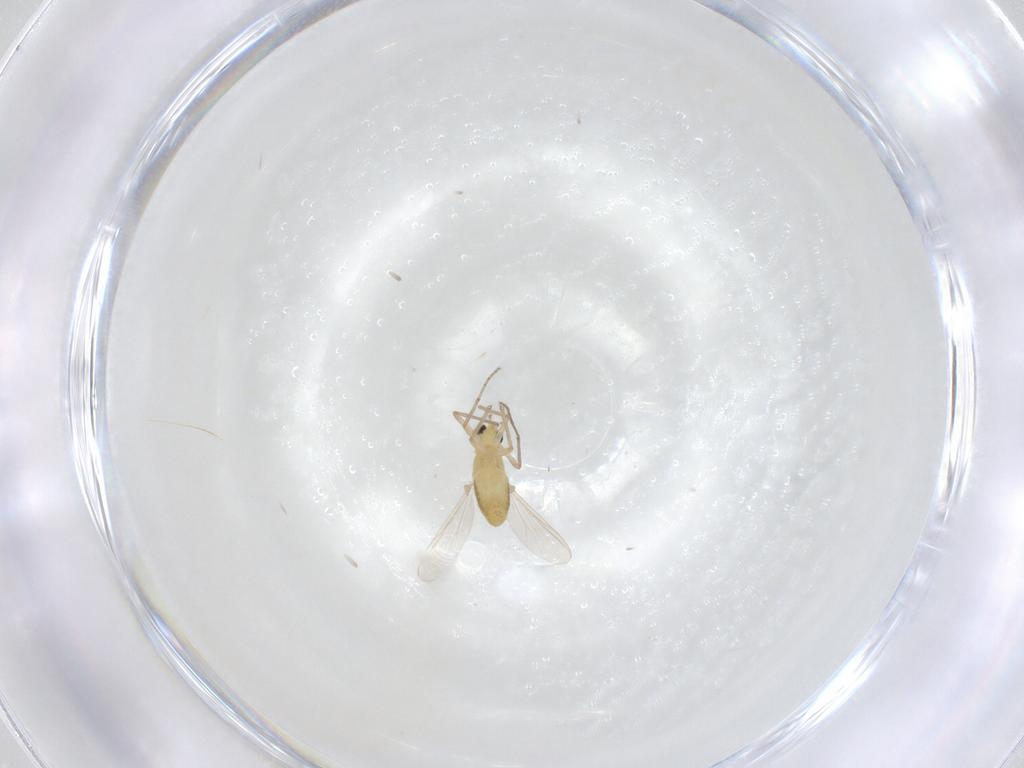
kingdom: Animalia
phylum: Arthropoda
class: Insecta
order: Diptera
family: Chironomidae
